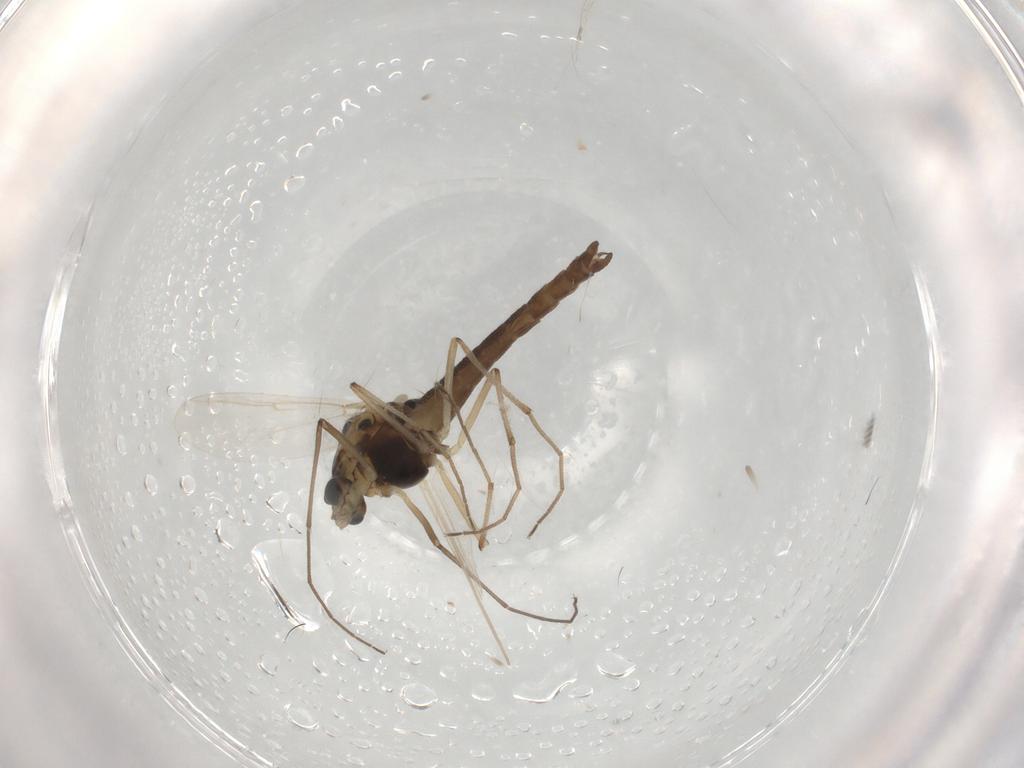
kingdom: Animalia
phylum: Arthropoda
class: Insecta
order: Diptera
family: Chironomidae
